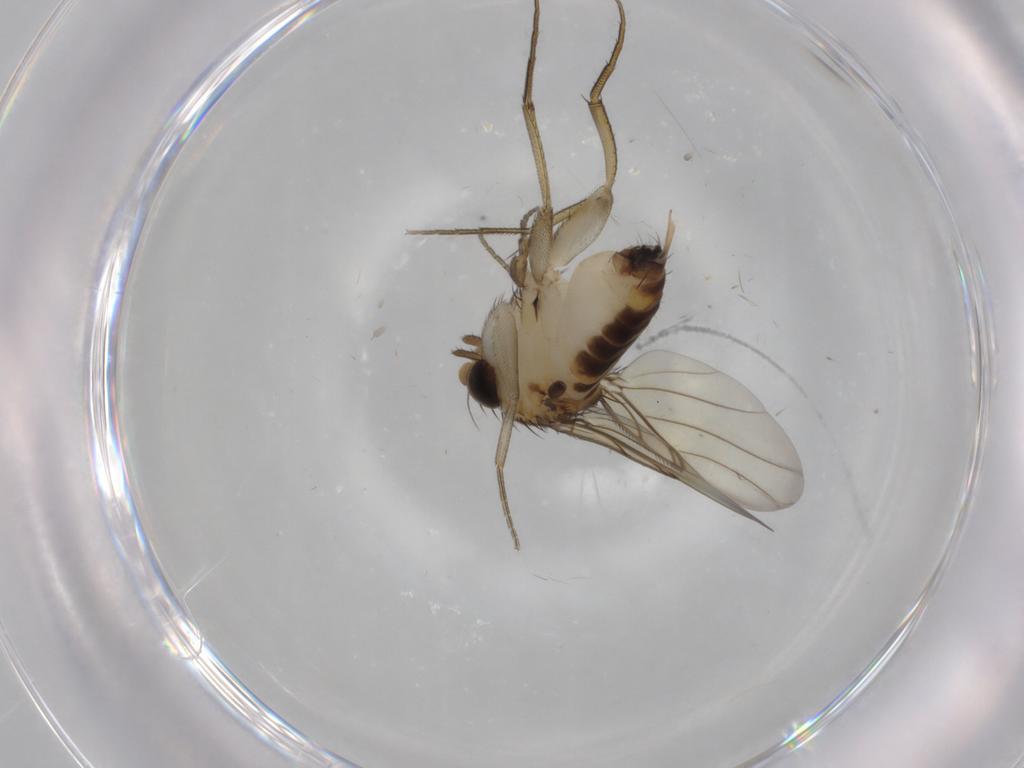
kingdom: Animalia
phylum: Arthropoda
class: Insecta
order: Diptera
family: Phoridae
